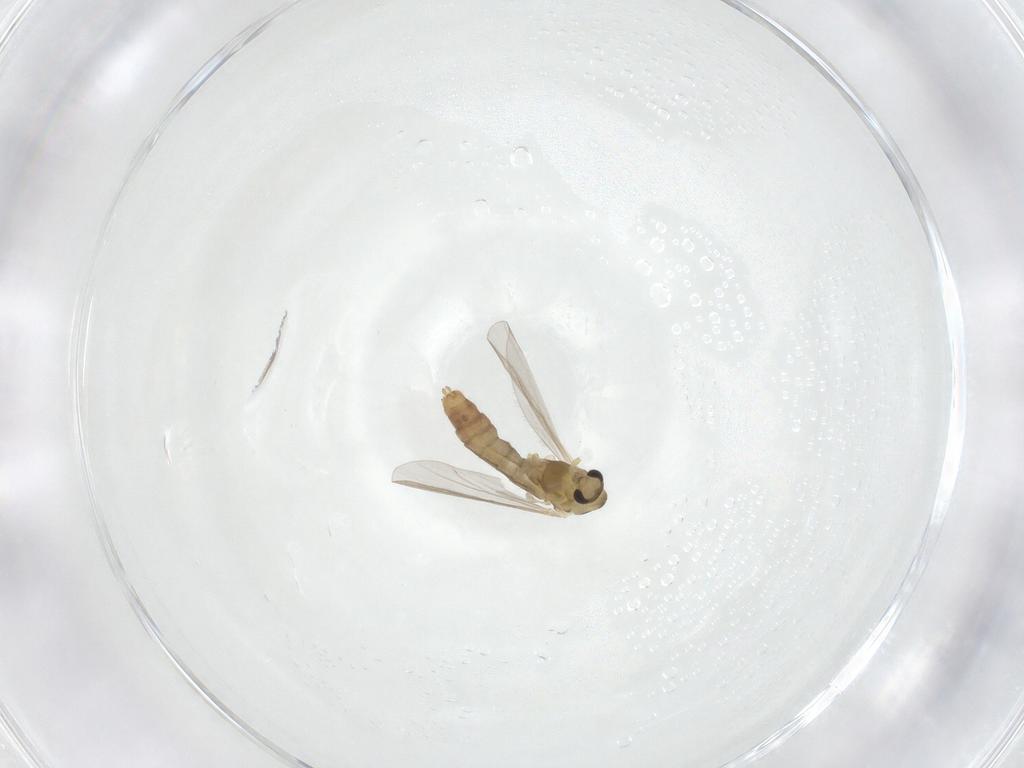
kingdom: Animalia
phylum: Arthropoda
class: Insecta
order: Diptera
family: Chironomidae
